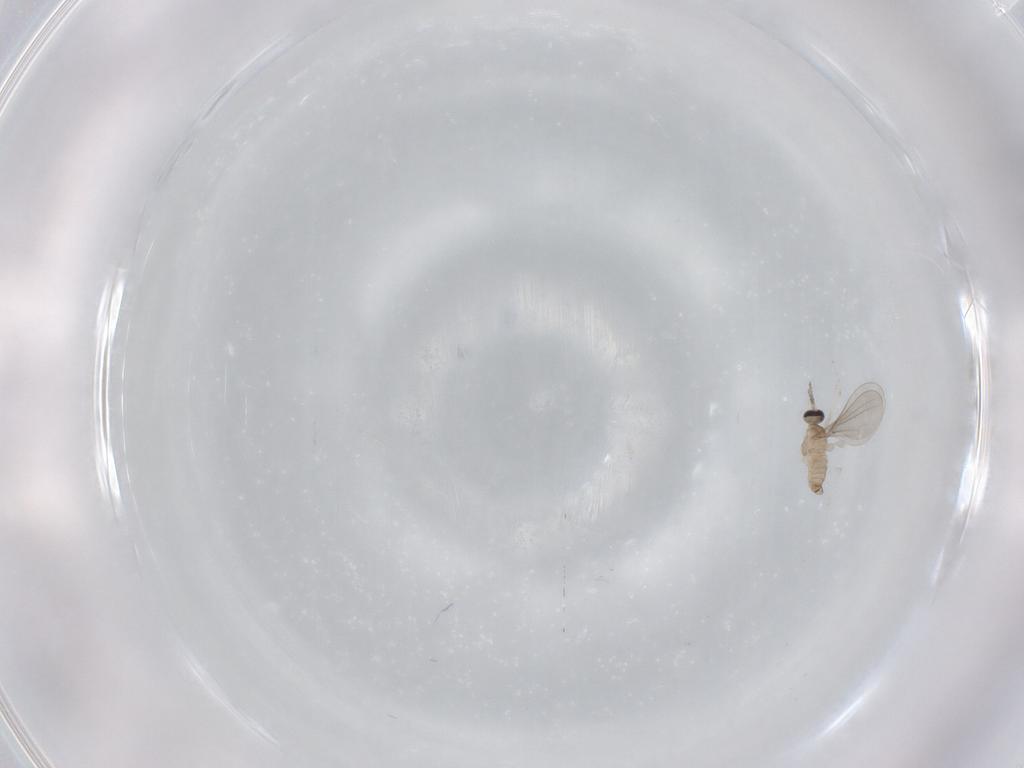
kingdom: Animalia
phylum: Arthropoda
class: Insecta
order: Diptera
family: Cecidomyiidae
